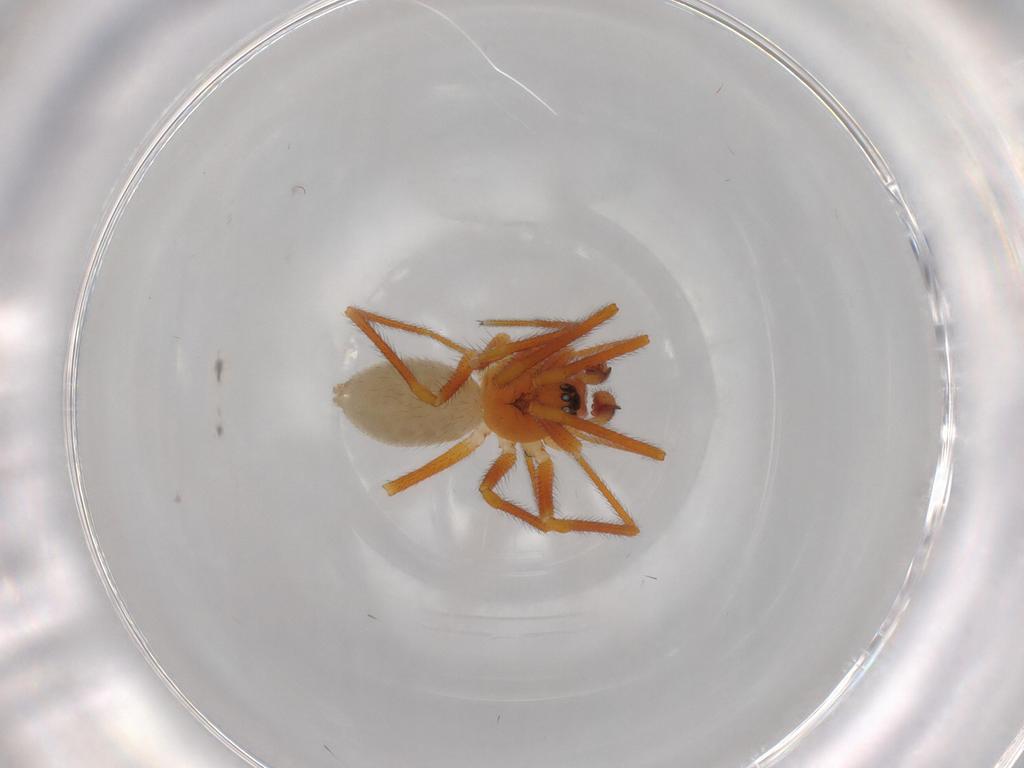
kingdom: Animalia
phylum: Arthropoda
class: Arachnida
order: Araneae
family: Linyphiidae
